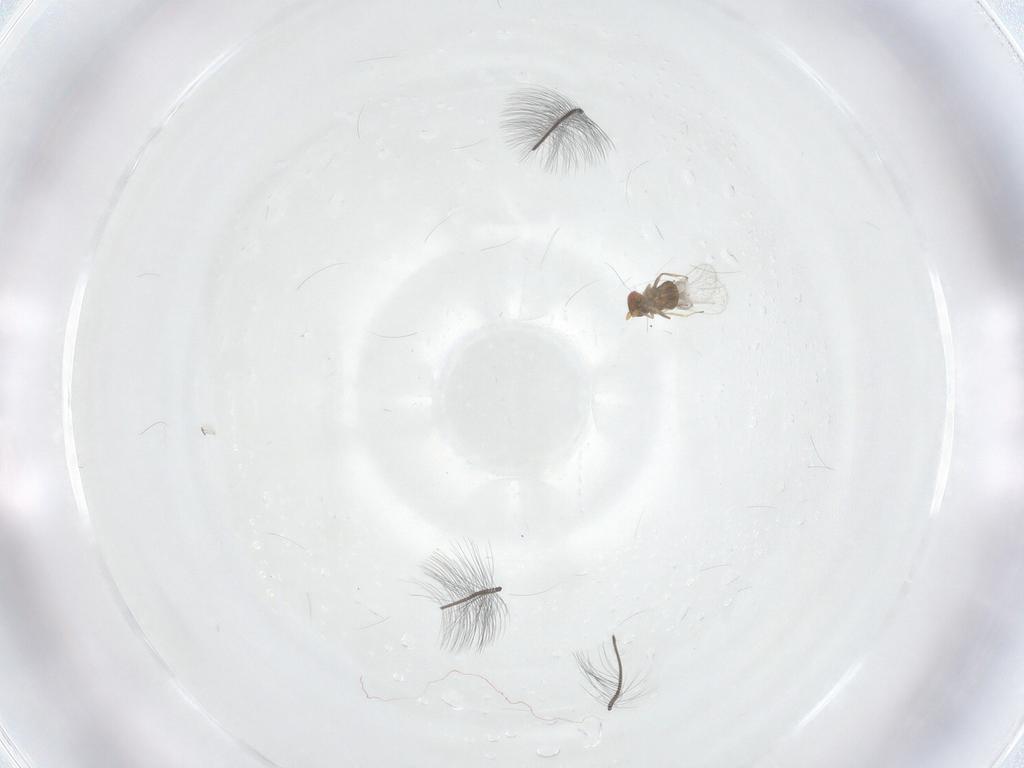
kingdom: Animalia
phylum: Arthropoda
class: Insecta
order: Hymenoptera
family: Trichogrammatidae
